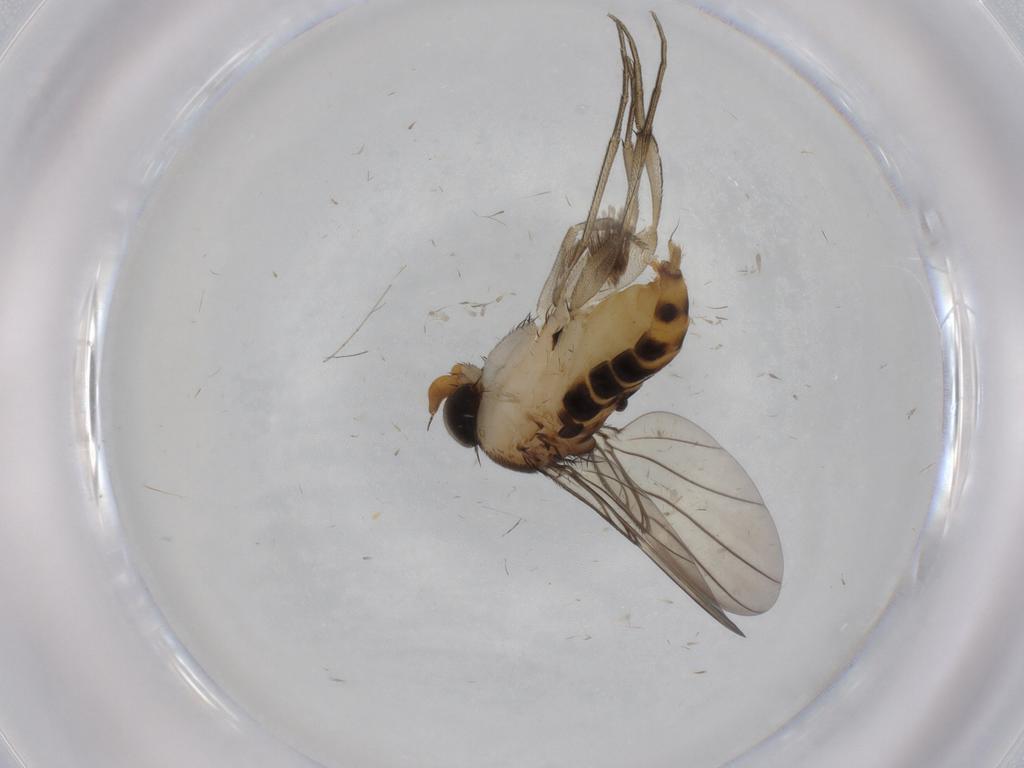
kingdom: Animalia
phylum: Arthropoda
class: Insecta
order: Diptera
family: Phoridae
